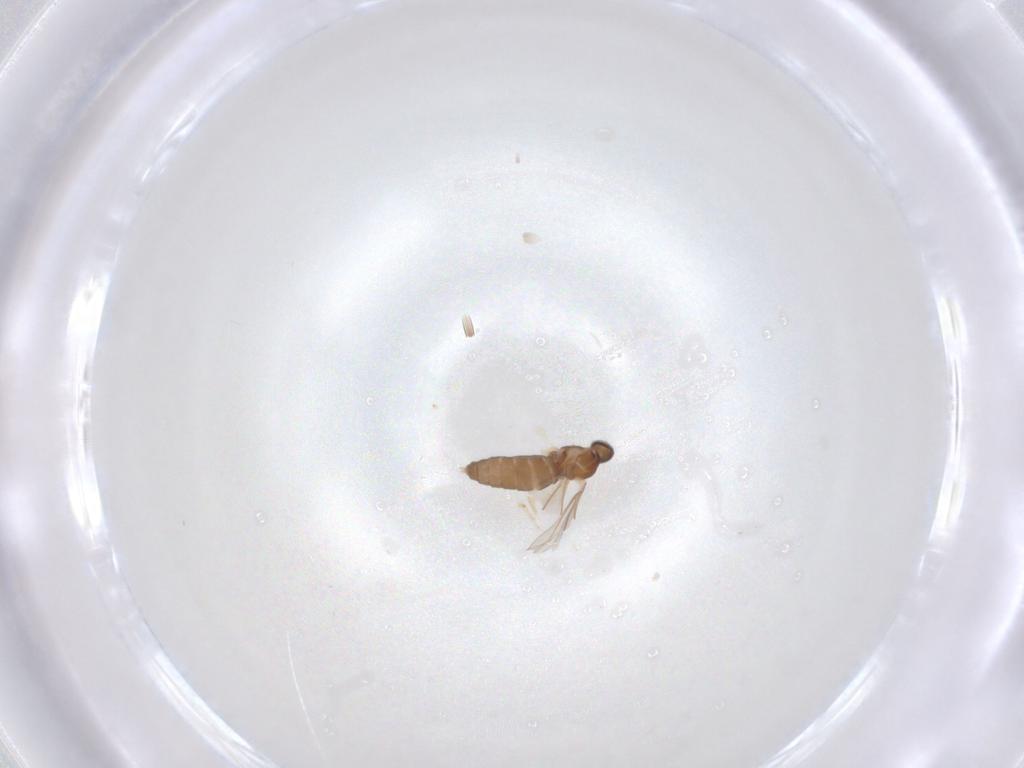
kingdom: Animalia
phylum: Arthropoda
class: Insecta
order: Diptera
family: Cecidomyiidae
